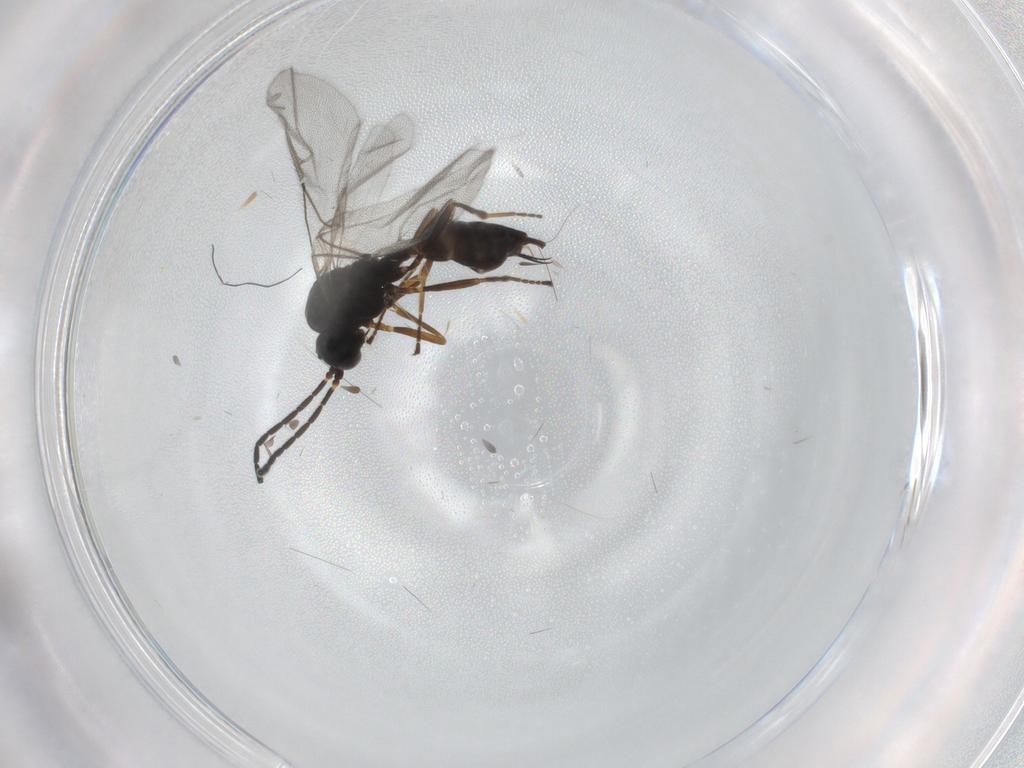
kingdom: Animalia
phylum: Arthropoda
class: Insecta
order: Hymenoptera
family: Braconidae
